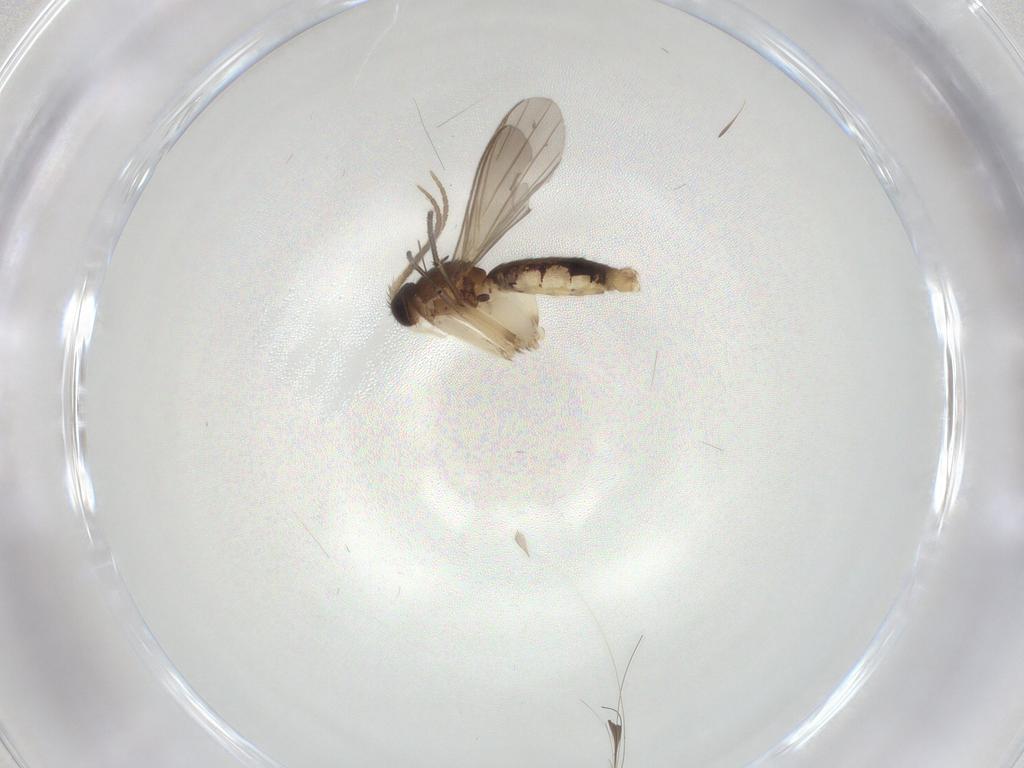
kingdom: Animalia
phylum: Arthropoda
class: Insecta
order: Diptera
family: Mycetophilidae
